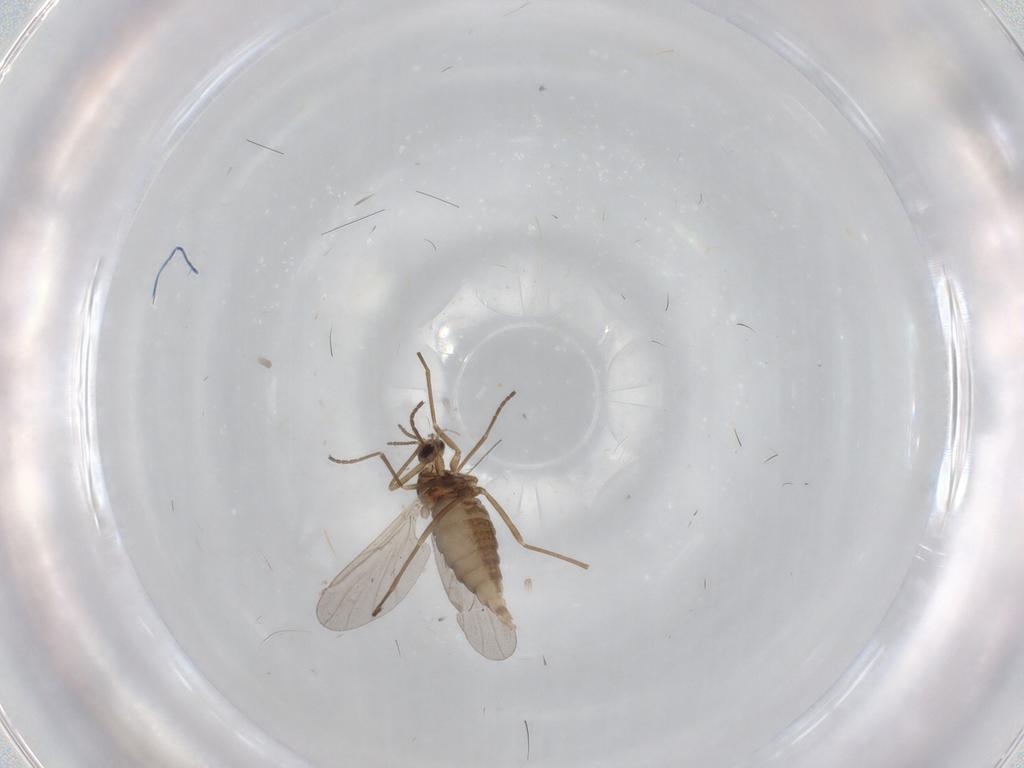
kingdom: Animalia
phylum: Arthropoda
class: Insecta
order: Diptera
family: Cecidomyiidae
